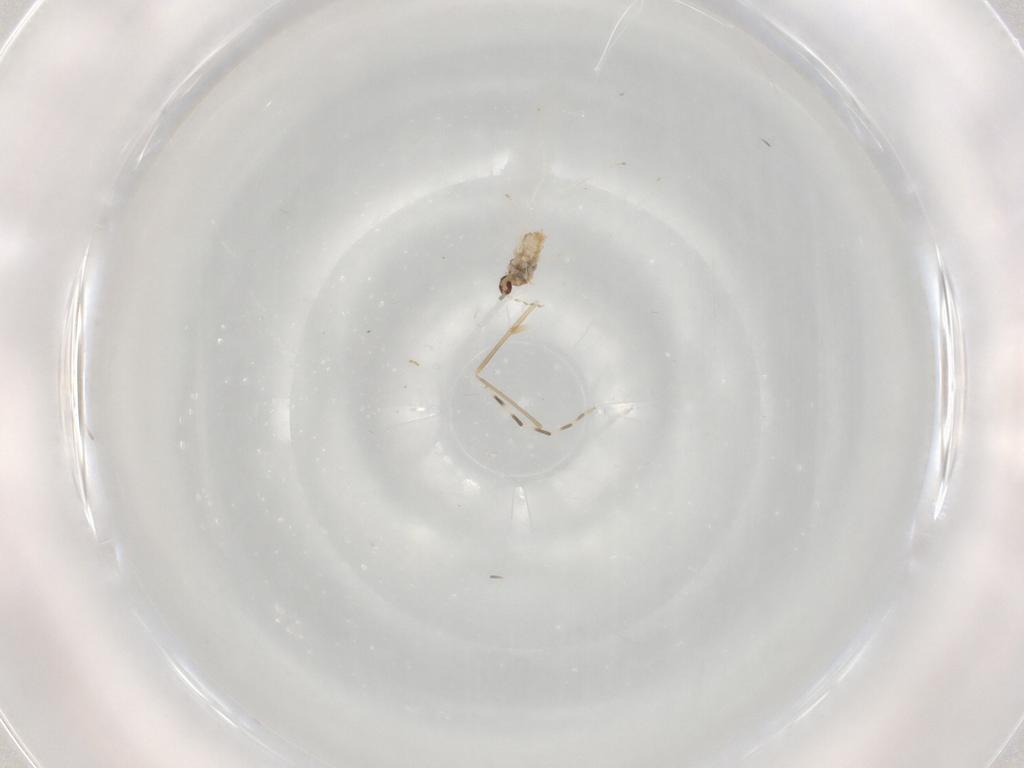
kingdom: Animalia
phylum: Arthropoda
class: Insecta
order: Diptera
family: Cecidomyiidae
